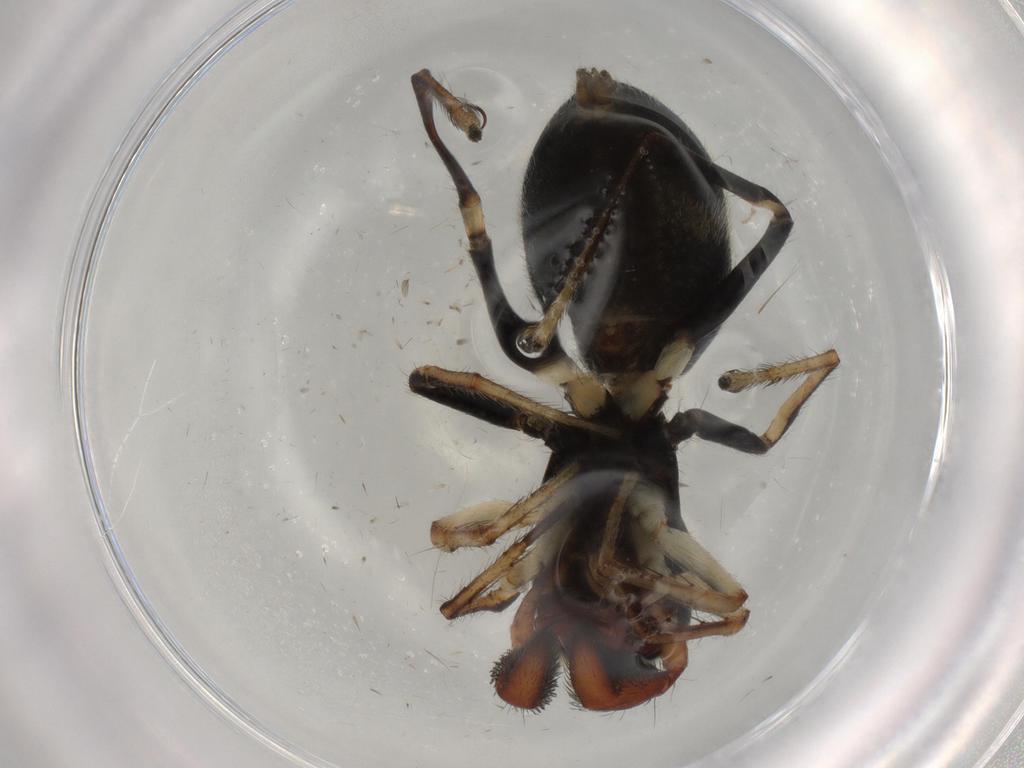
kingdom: Animalia
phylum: Arthropoda
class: Arachnida
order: Araneae
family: Salticidae
